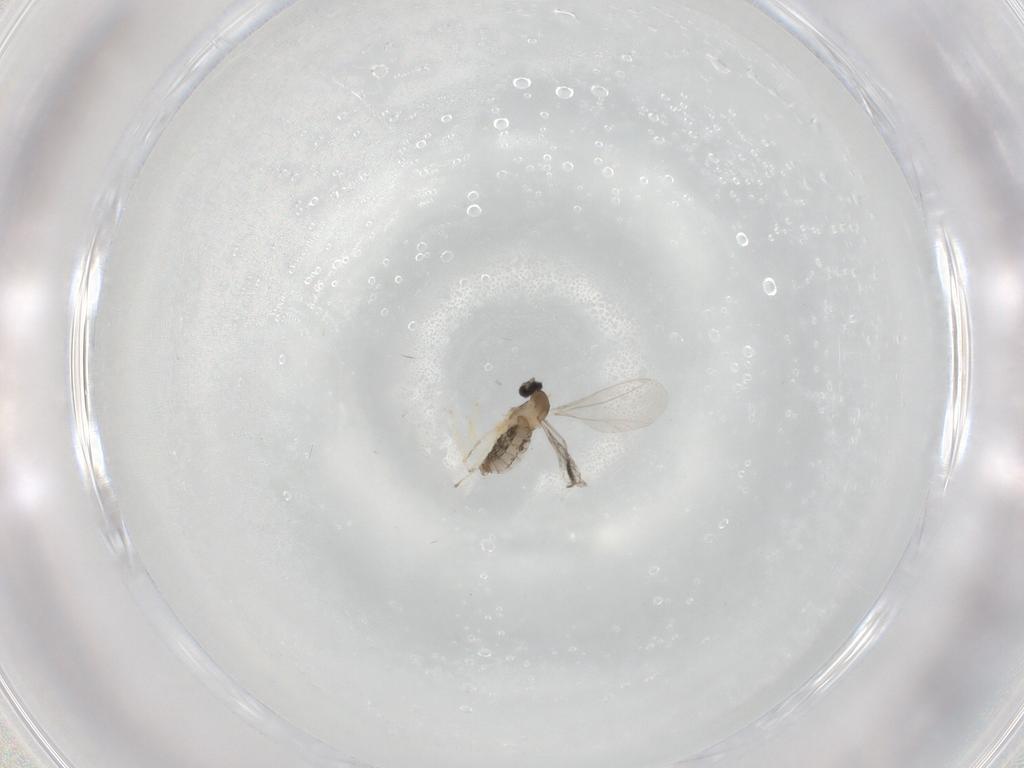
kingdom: Animalia
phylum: Arthropoda
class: Insecta
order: Diptera
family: Cecidomyiidae
